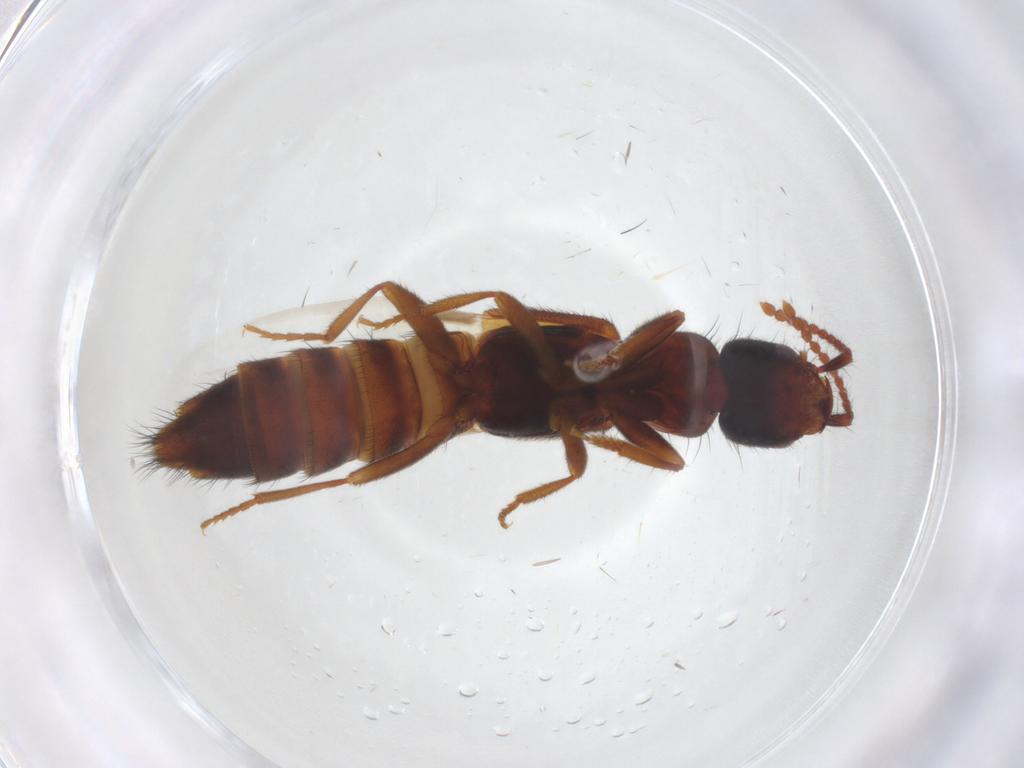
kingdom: Animalia
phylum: Arthropoda
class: Insecta
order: Coleoptera
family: Staphylinidae
